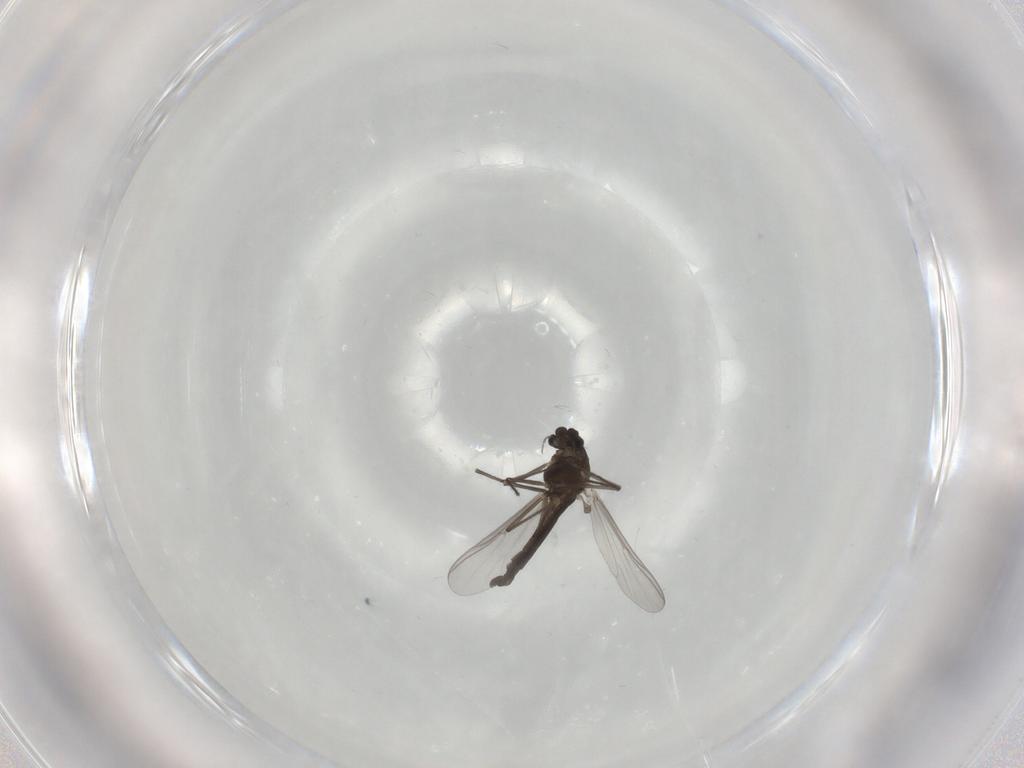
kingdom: Animalia
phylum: Arthropoda
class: Insecta
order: Diptera
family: Chironomidae
